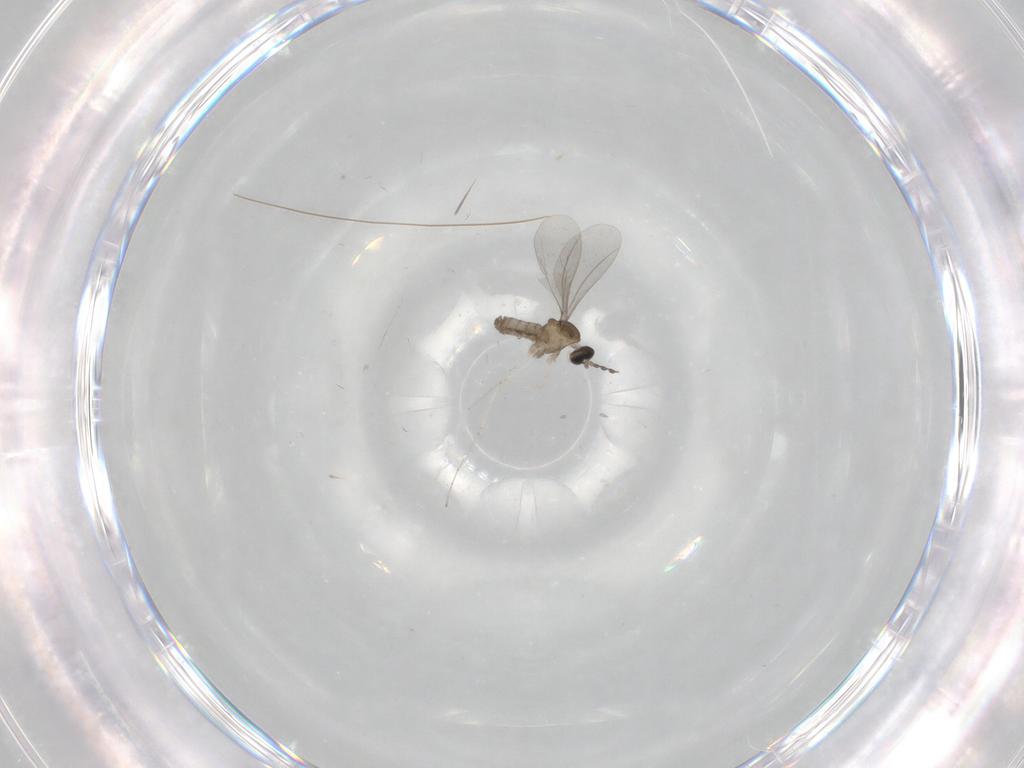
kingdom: Animalia
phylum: Arthropoda
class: Insecta
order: Diptera
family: Cecidomyiidae
